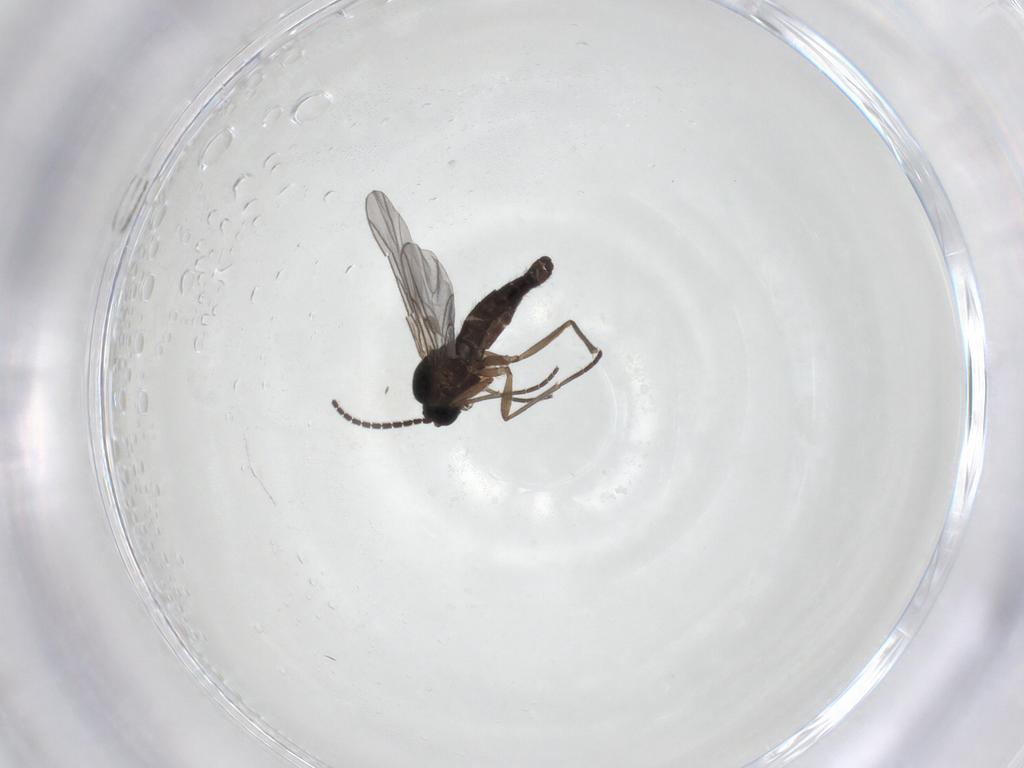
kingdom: Animalia
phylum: Arthropoda
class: Insecta
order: Diptera
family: Sciaridae
